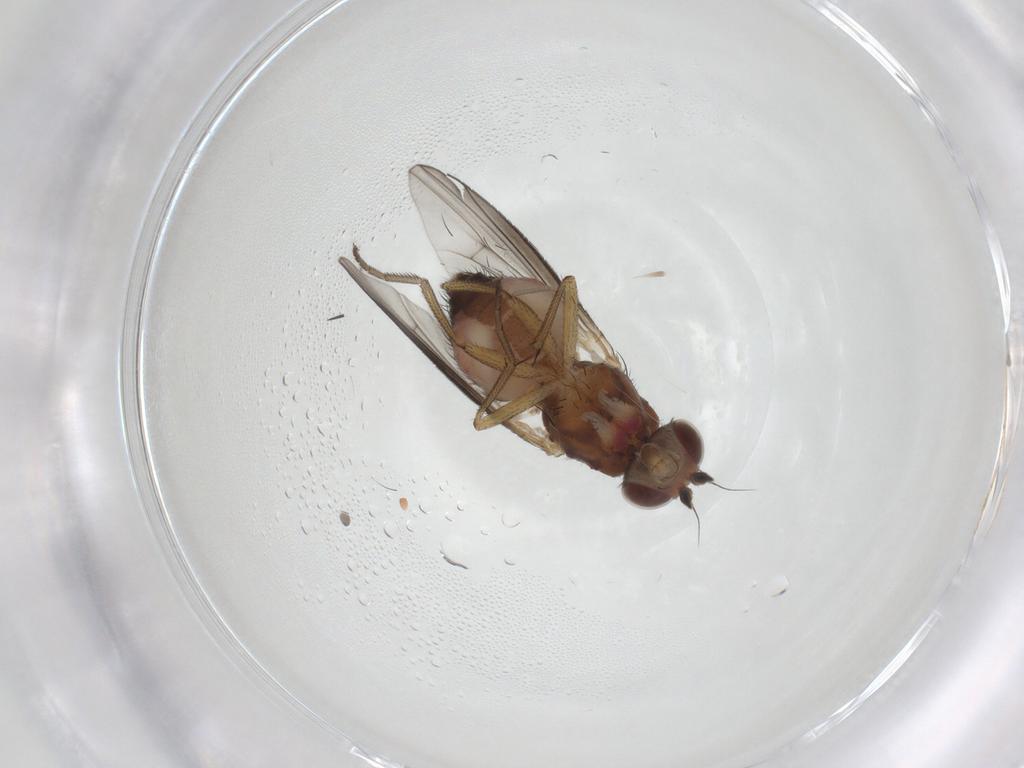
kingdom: Animalia
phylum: Arthropoda
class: Insecta
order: Diptera
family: Heleomyzidae
